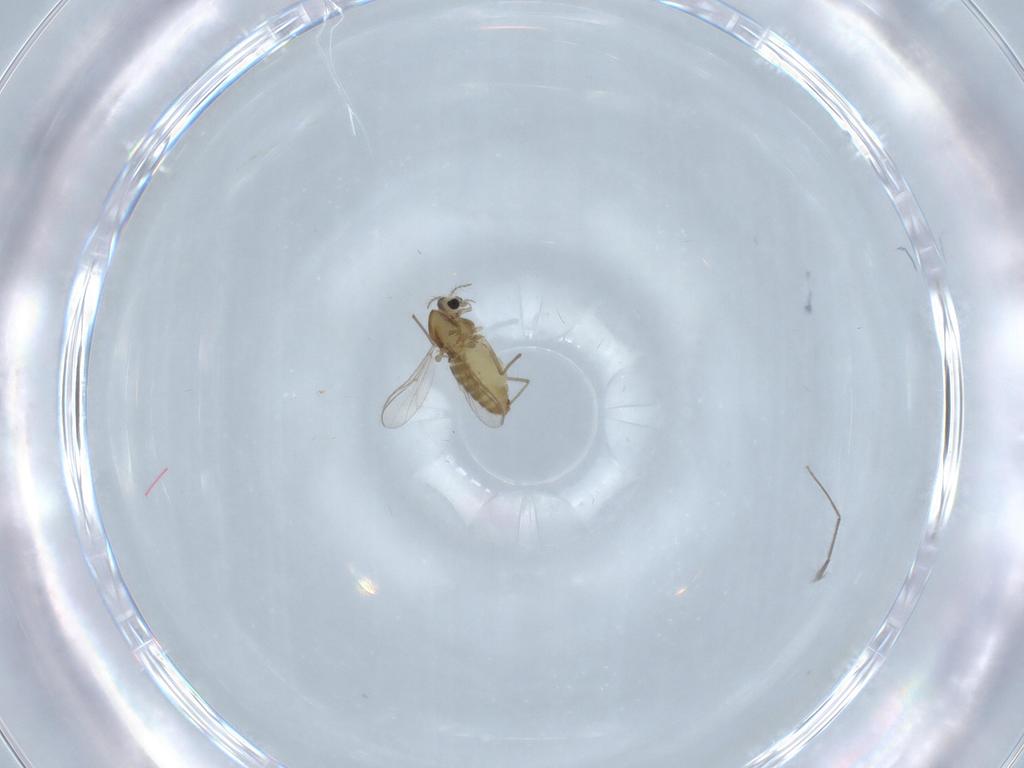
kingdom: Animalia
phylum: Arthropoda
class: Insecta
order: Diptera
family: Chironomidae
